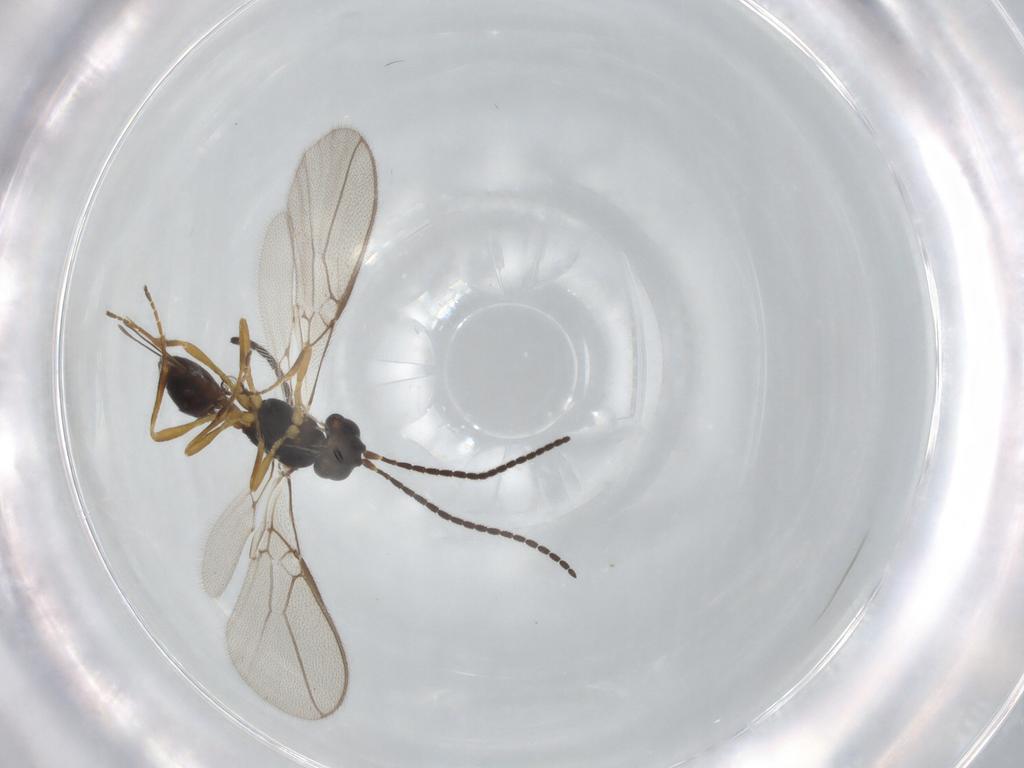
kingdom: Animalia
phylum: Arthropoda
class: Insecta
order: Hymenoptera
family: Braconidae
